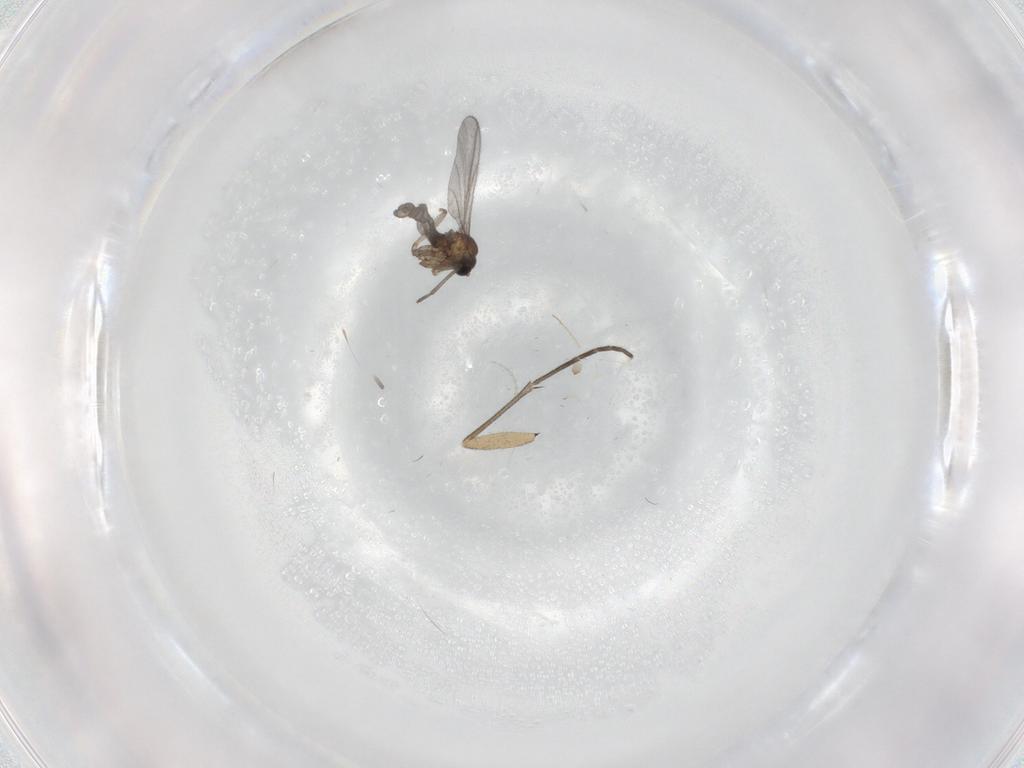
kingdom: Animalia
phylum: Arthropoda
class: Insecta
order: Diptera
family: Sciaridae
